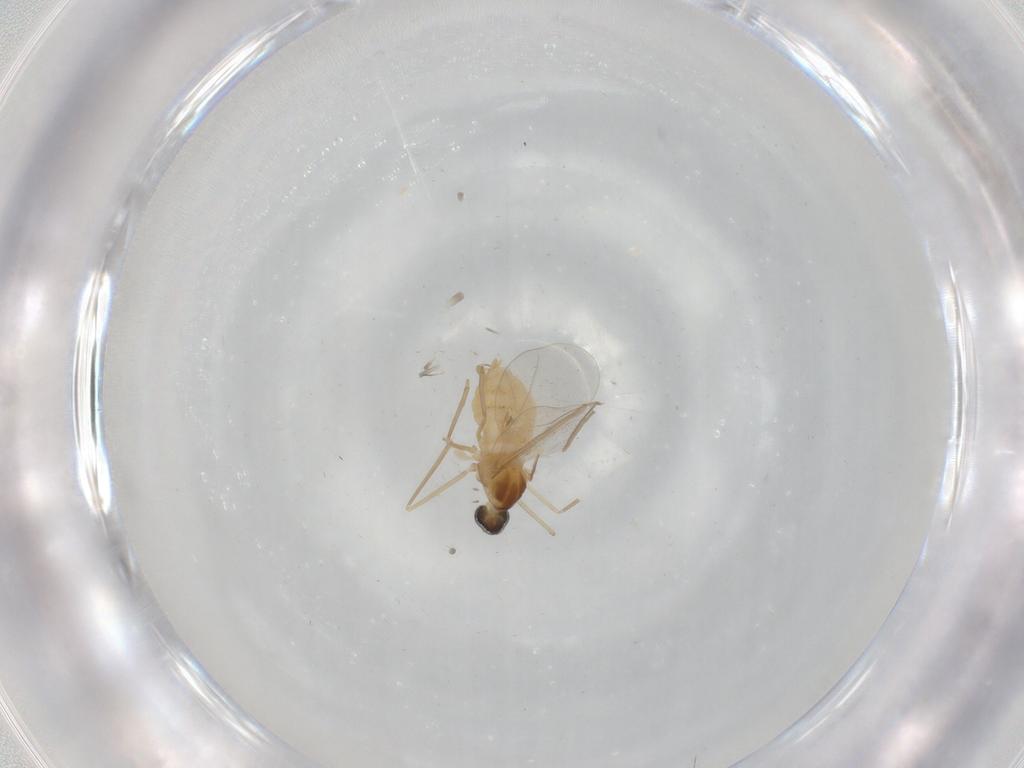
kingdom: Animalia
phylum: Arthropoda
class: Insecta
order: Diptera
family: Cecidomyiidae
